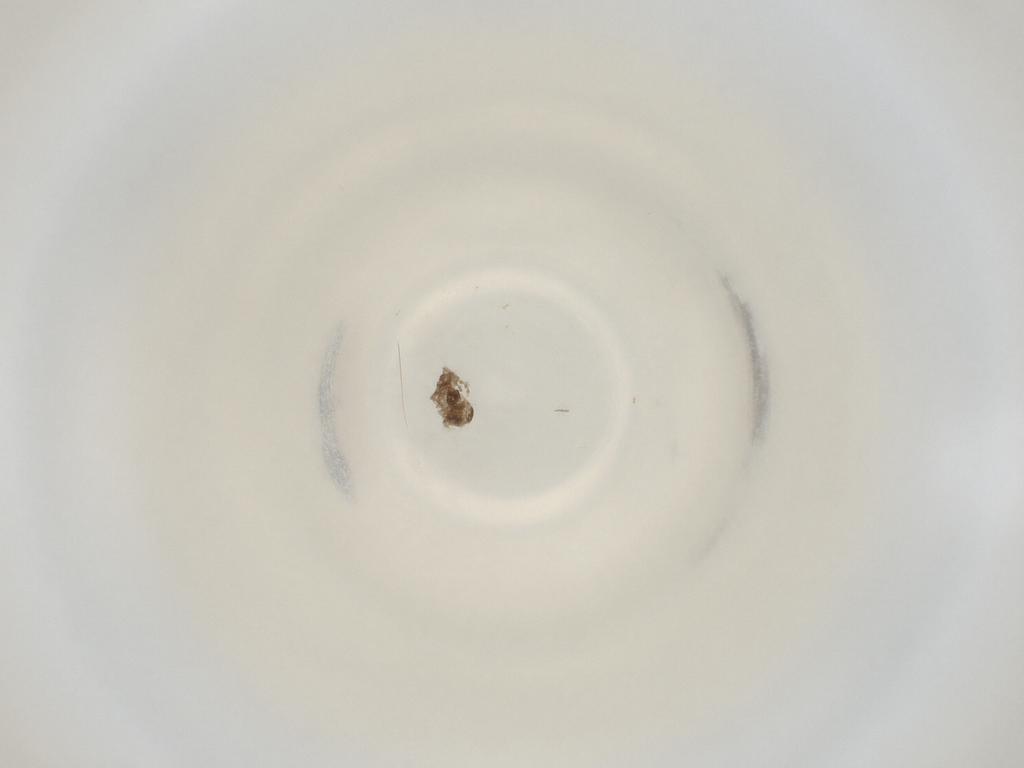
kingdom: Animalia
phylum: Arthropoda
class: Insecta
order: Diptera
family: Cecidomyiidae
